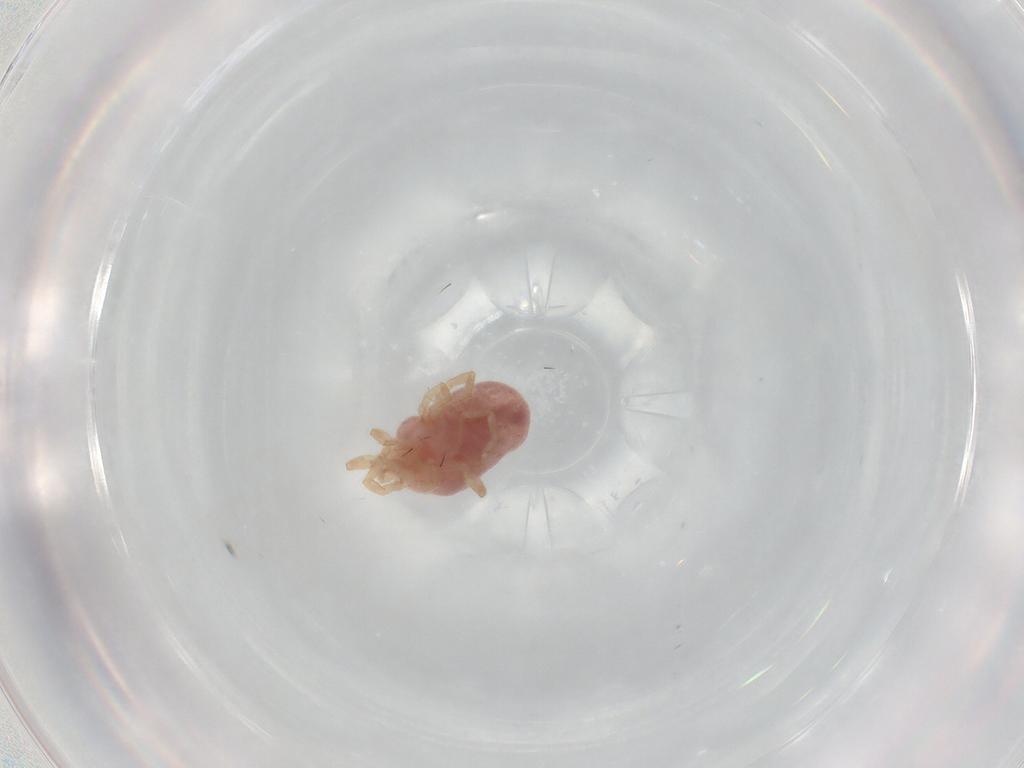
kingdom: Animalia
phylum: Arthropoda
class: Arachnida
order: Trombidiformes
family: Erythraeidae
